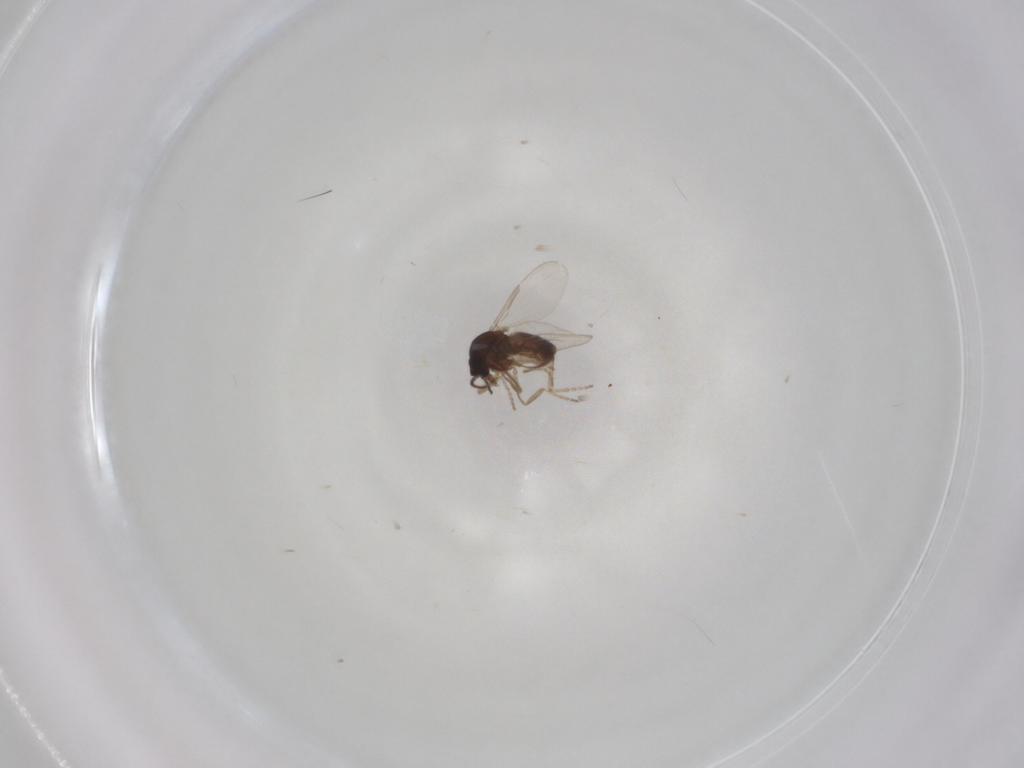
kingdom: Animalia
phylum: Arthropoda
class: Insecta
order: Diptera
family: Ceratopogonidae
